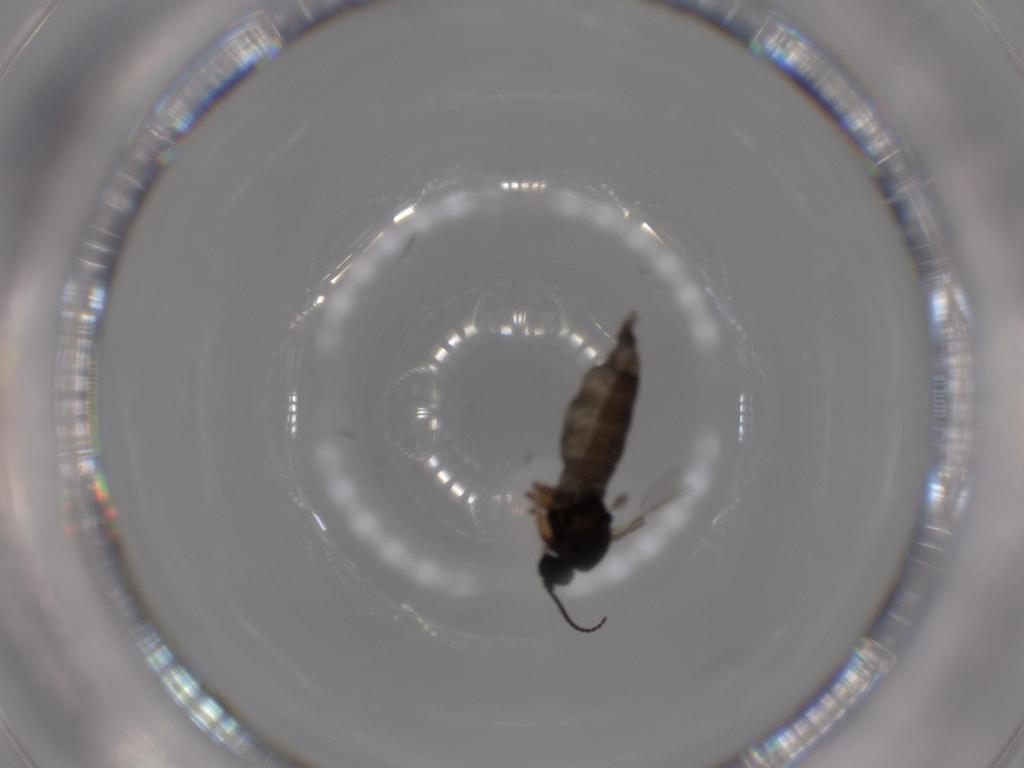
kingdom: Animalia
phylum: Arthropoda
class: Insecta
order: Diptera
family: Sciaridae
